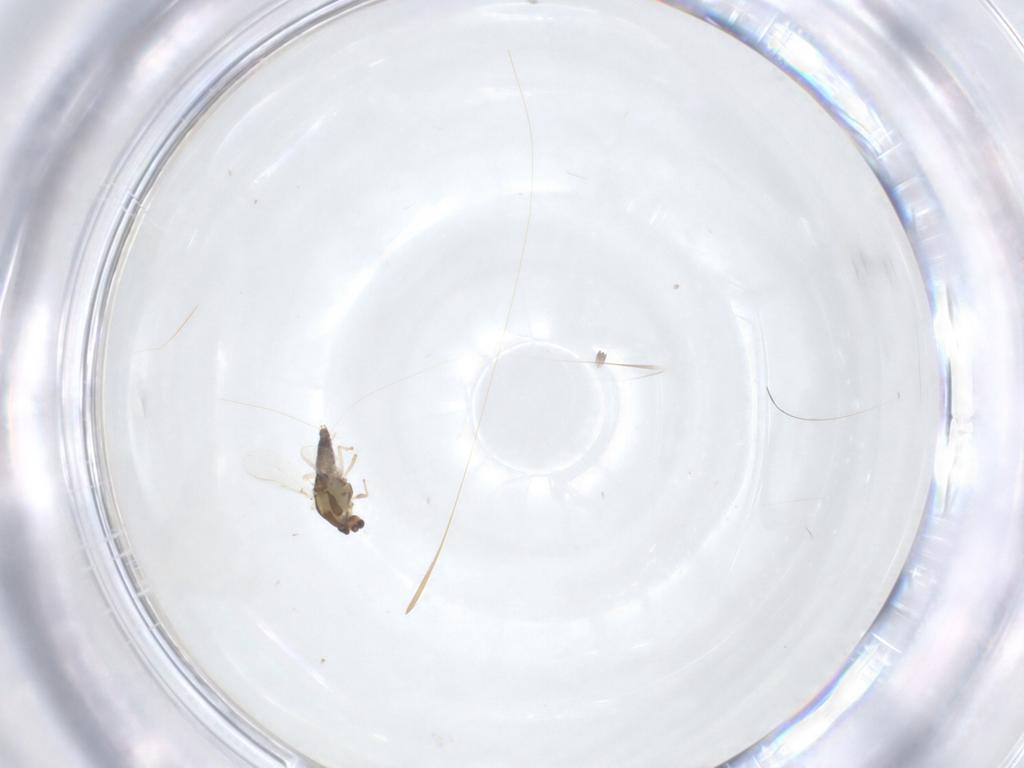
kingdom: Animalia
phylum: Arthropoda
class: Insecta
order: Diptera
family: Chironomidae
